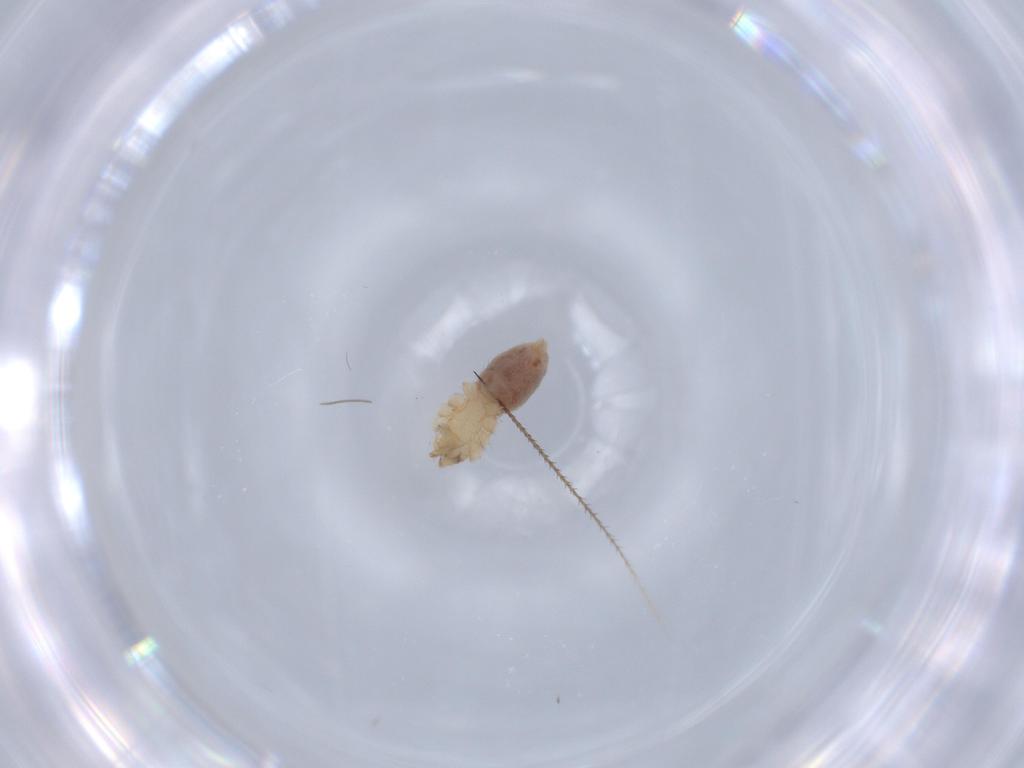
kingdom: Animalia
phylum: Arthropoda
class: Arachnida
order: Araneae
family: Oonopidae
